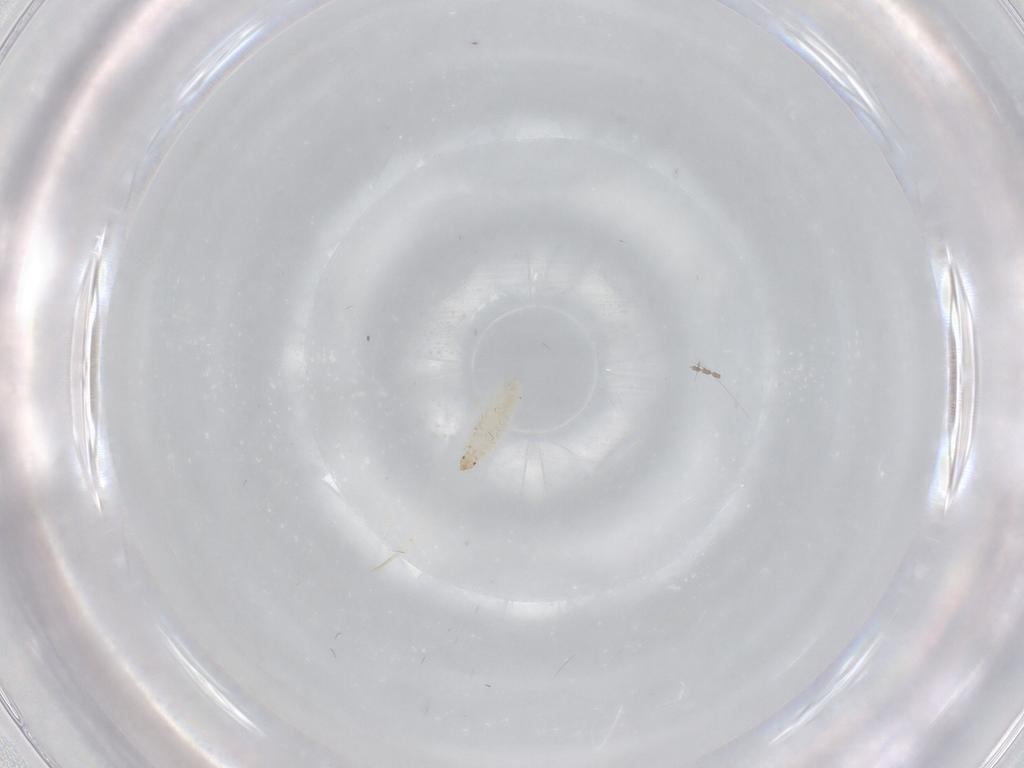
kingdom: Animalia
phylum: Arthropoda
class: Insecta
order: Diptera
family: Cecidomyiidae
